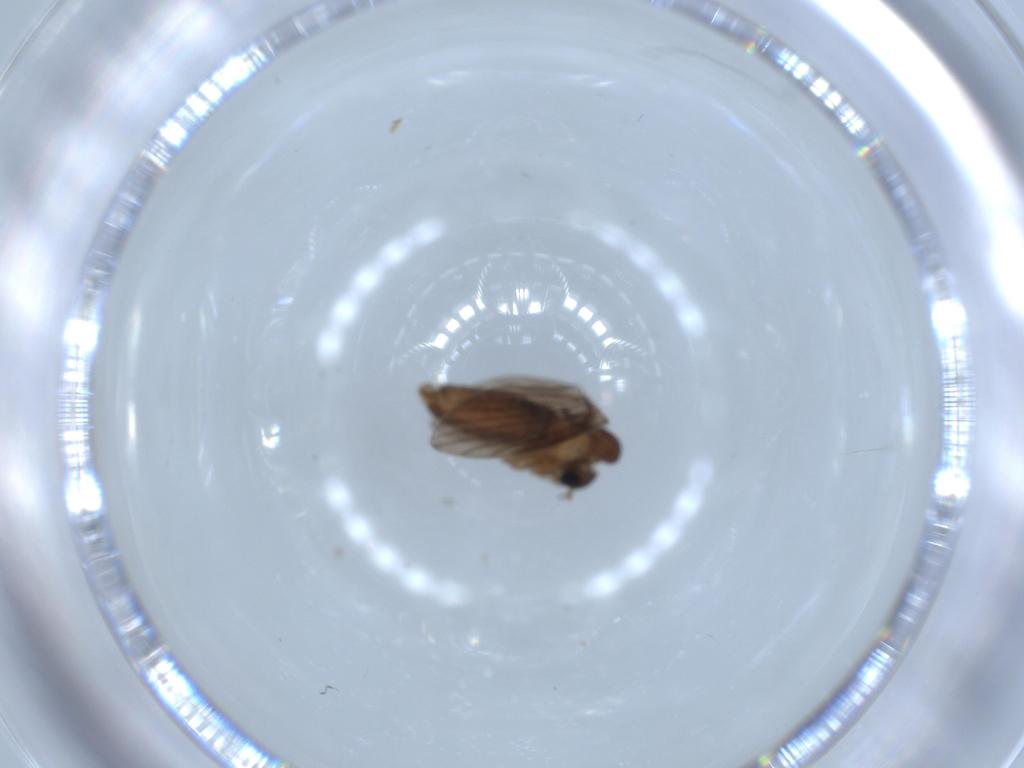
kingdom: Animalia
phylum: Arthropoda
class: Insecta
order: Diptera
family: Psychodidae
